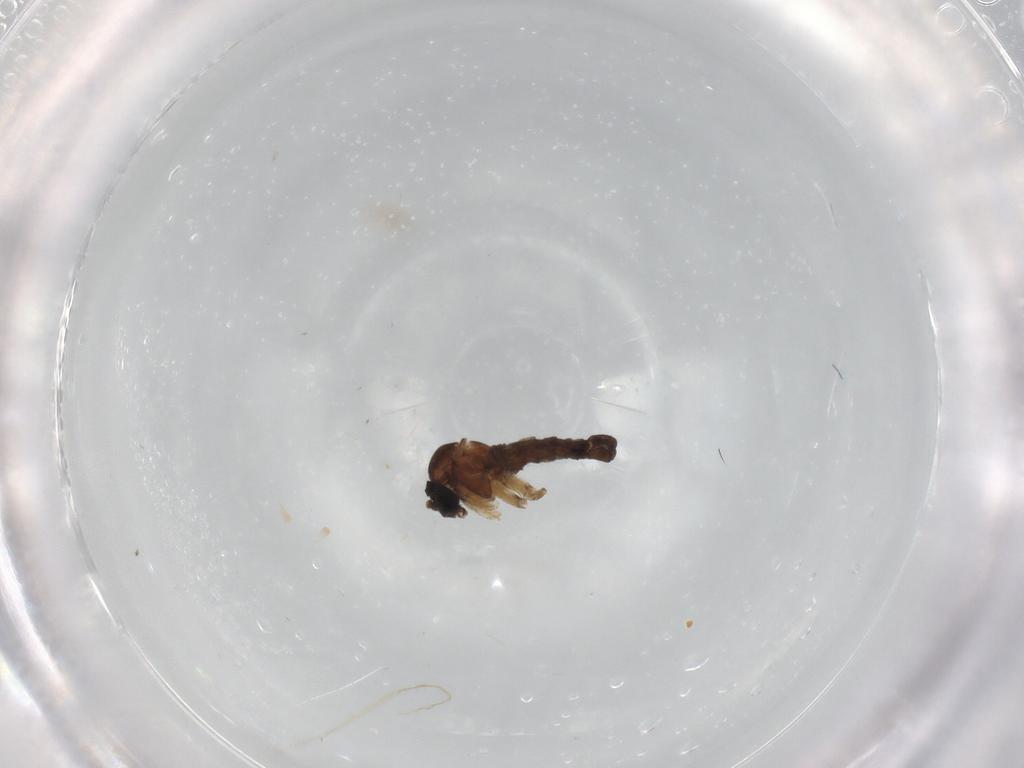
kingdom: Animalia
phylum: Arthropoda
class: Insecta
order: Diptera
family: Sciaridae
